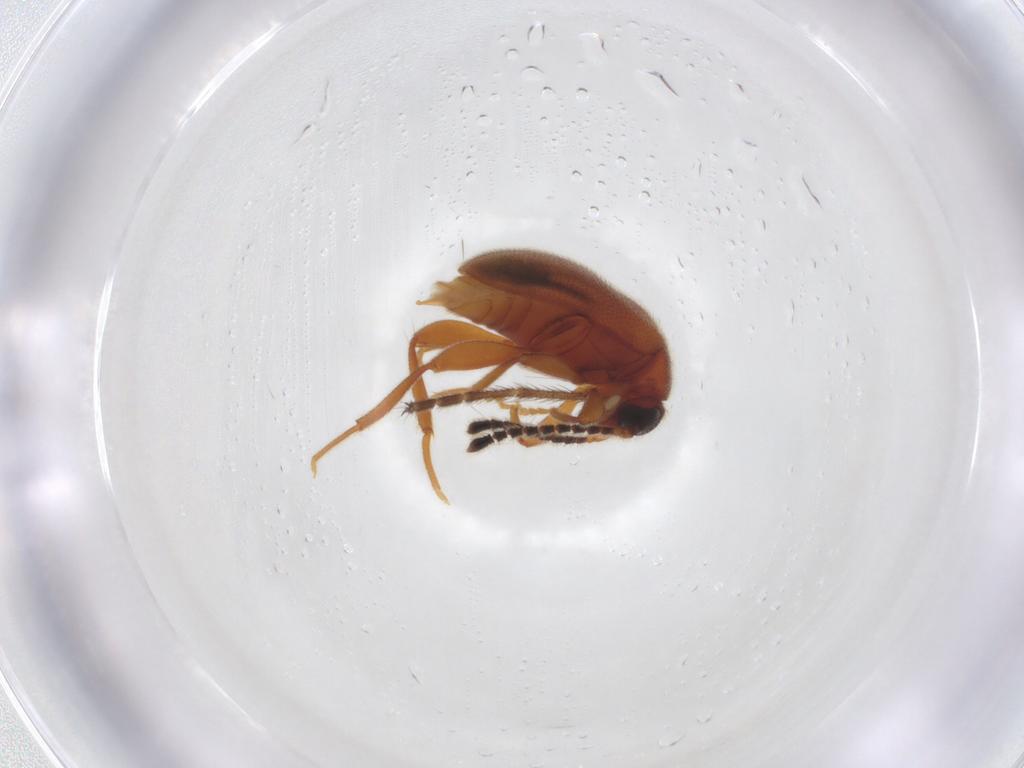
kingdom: Animalia
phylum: Arthropoda
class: Insecta
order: Coleoptera
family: Aderidae
